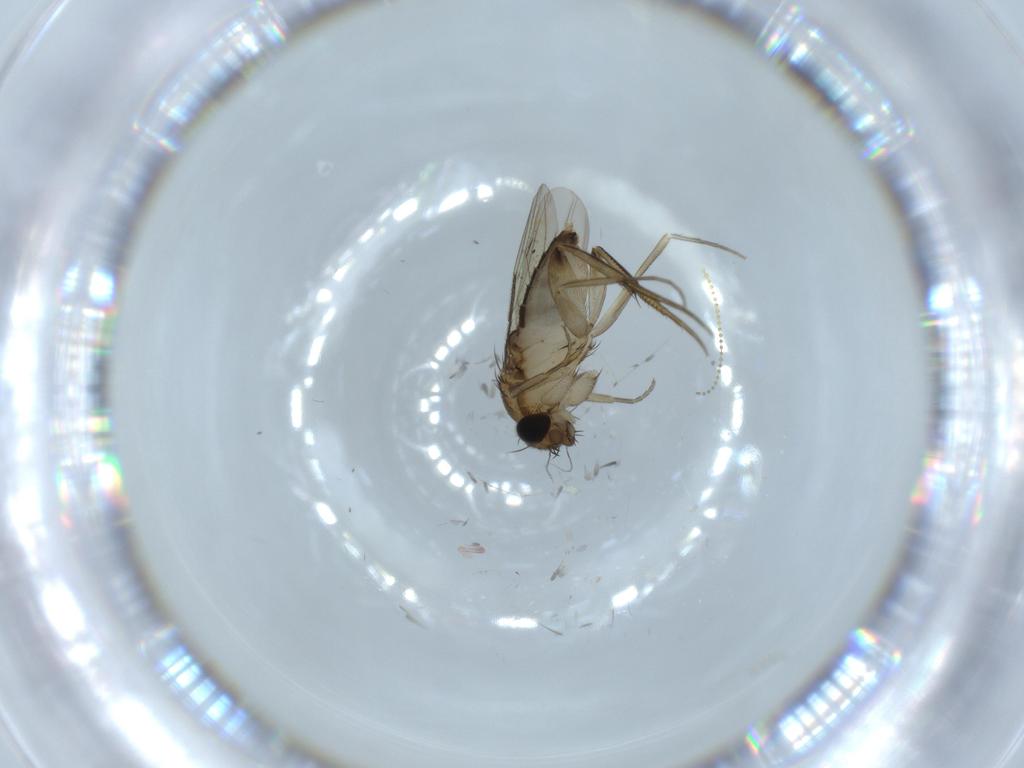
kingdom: Animalia
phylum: Arthropoda
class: Insecta
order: Diptera
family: Phoridae
